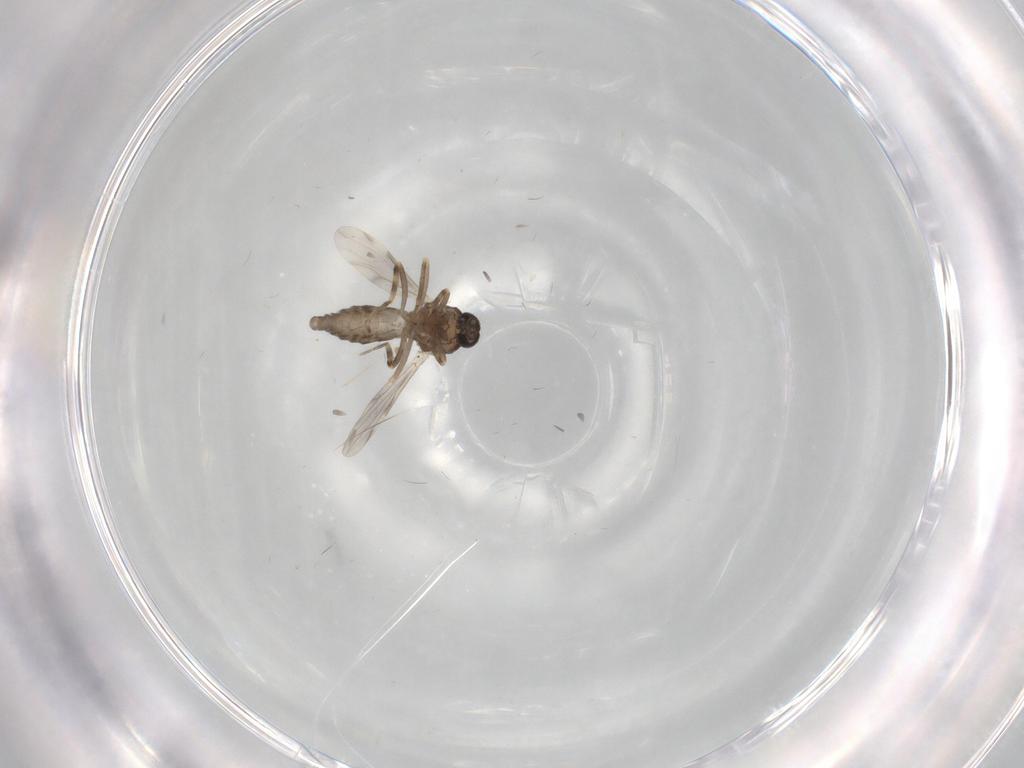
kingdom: Animalia
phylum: Arthropoda
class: Insecta
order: Diptera
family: Ceratopogonidae
